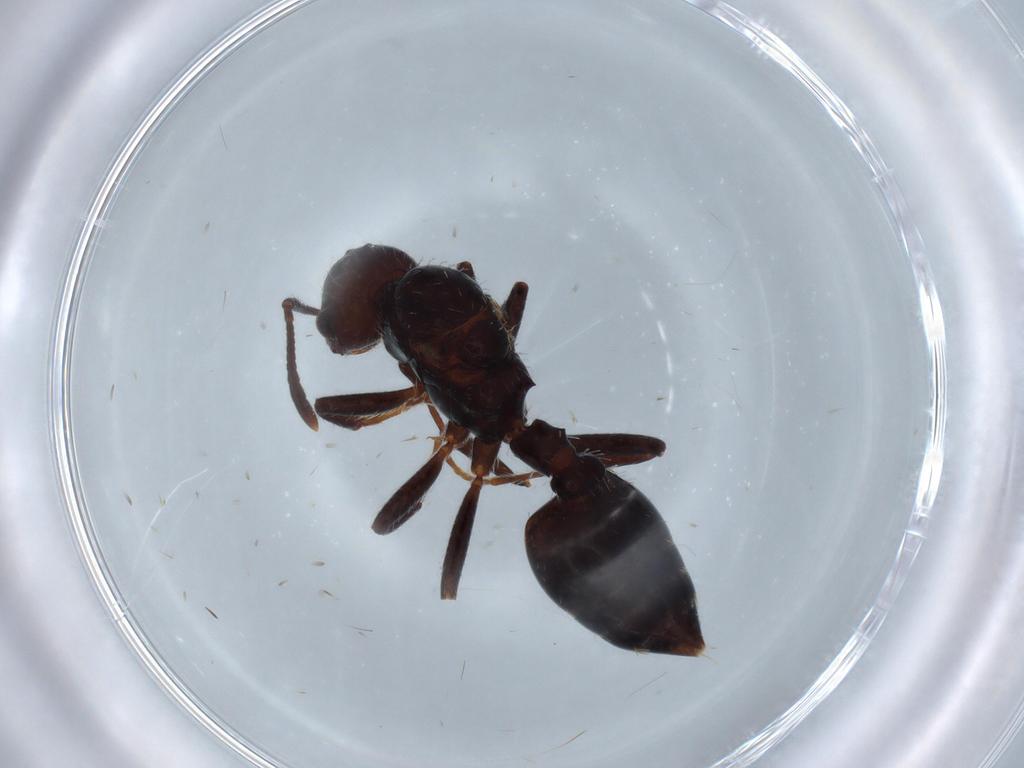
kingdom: Animalia
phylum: Arthropoda
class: Insecta
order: Hymenoptera
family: Formicidae
